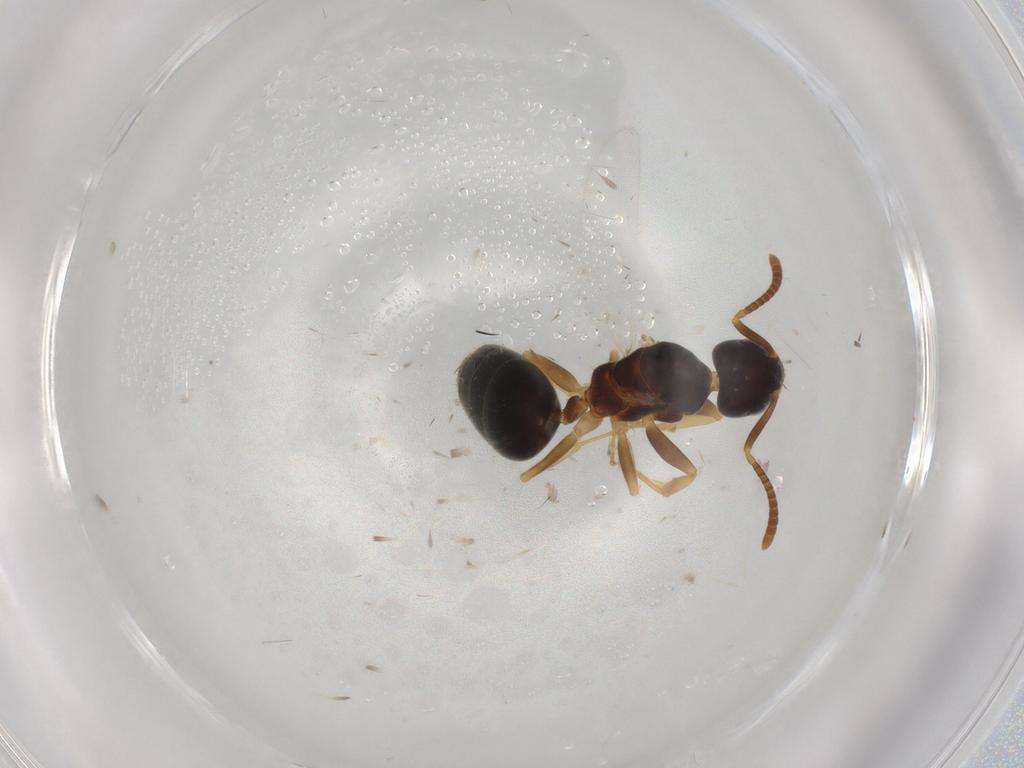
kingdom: Animalia
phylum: Arthropoda
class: Insecta
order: Hymenoptera
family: Formicidae
